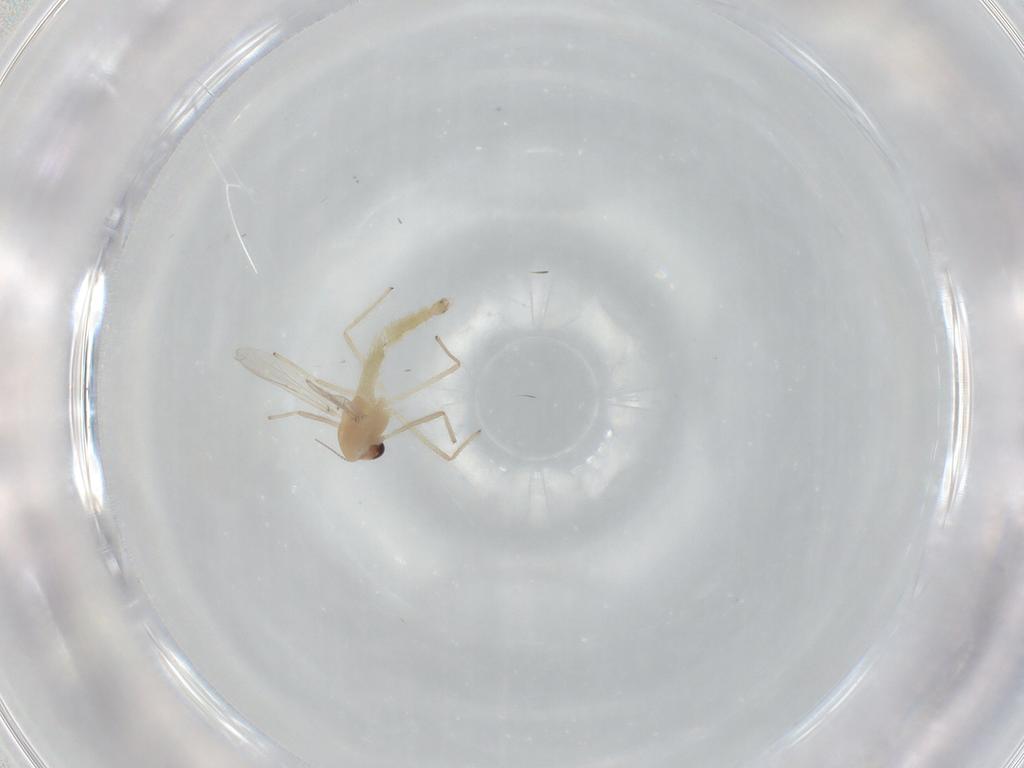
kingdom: Animalia
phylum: Arthropoda
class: Insecta
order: Diptera
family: Chironomidae
